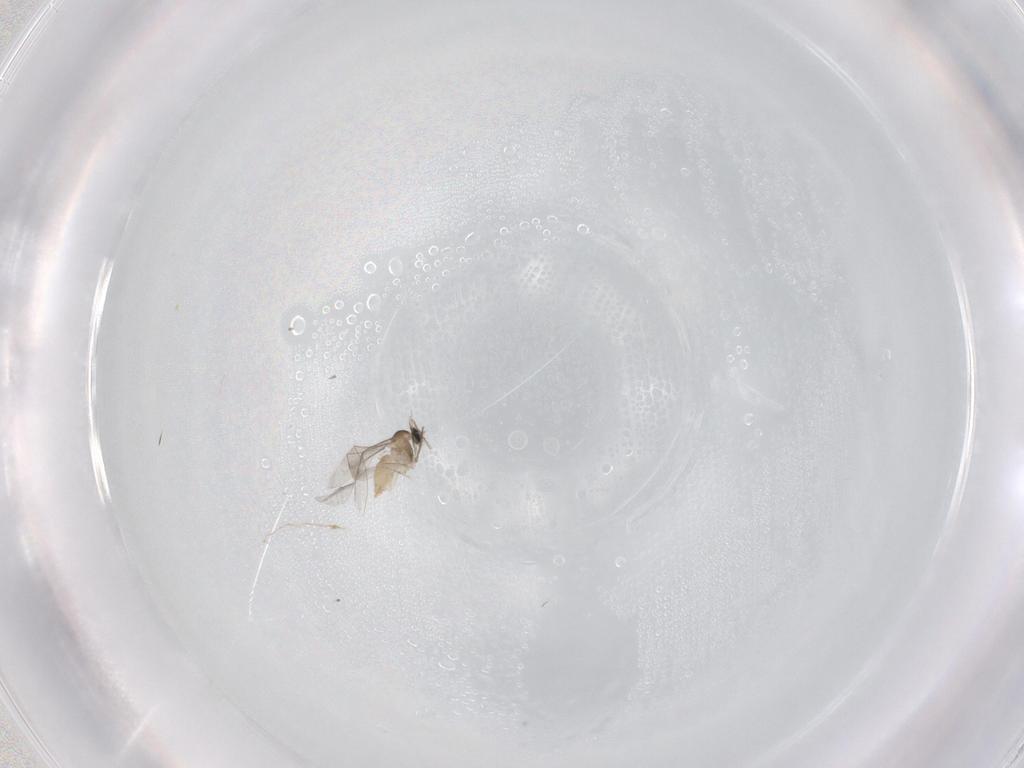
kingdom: Animalia
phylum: Arthropoda
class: Insecta
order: Diptera
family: Cecidomyiidae
